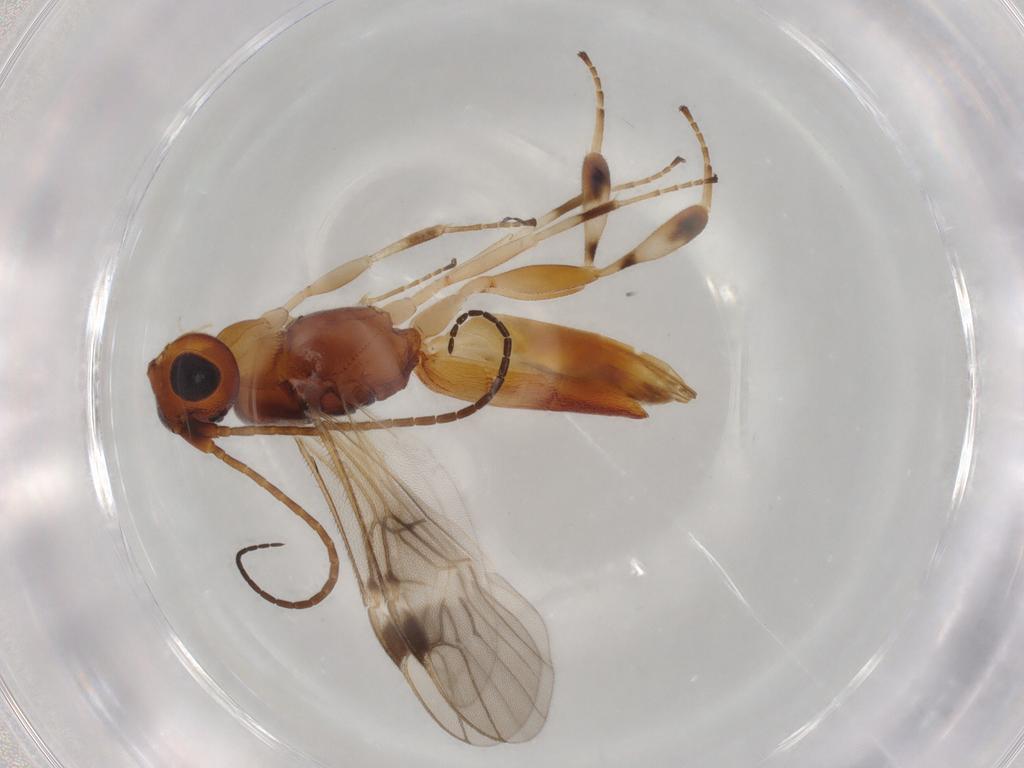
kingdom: Animalia
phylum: Arthropoda
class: Insecta
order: Hymenoptera
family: Braconidae
